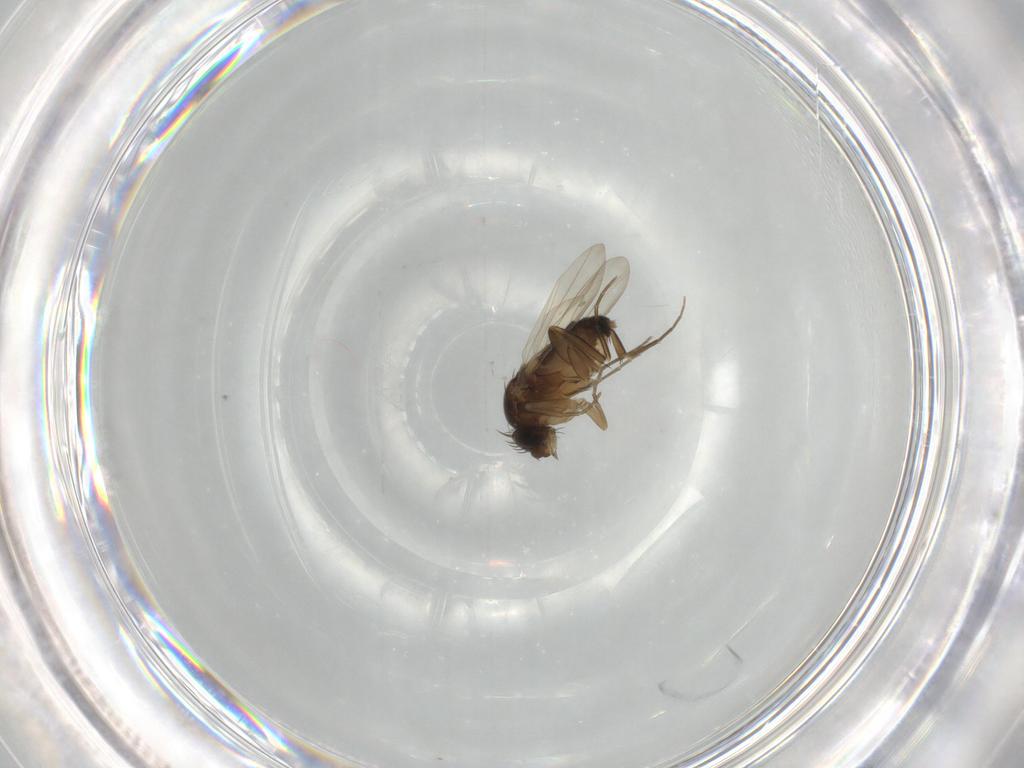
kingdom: Animalia
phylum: Arthropoda
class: Insecta
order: Diptera
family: Phoridae
